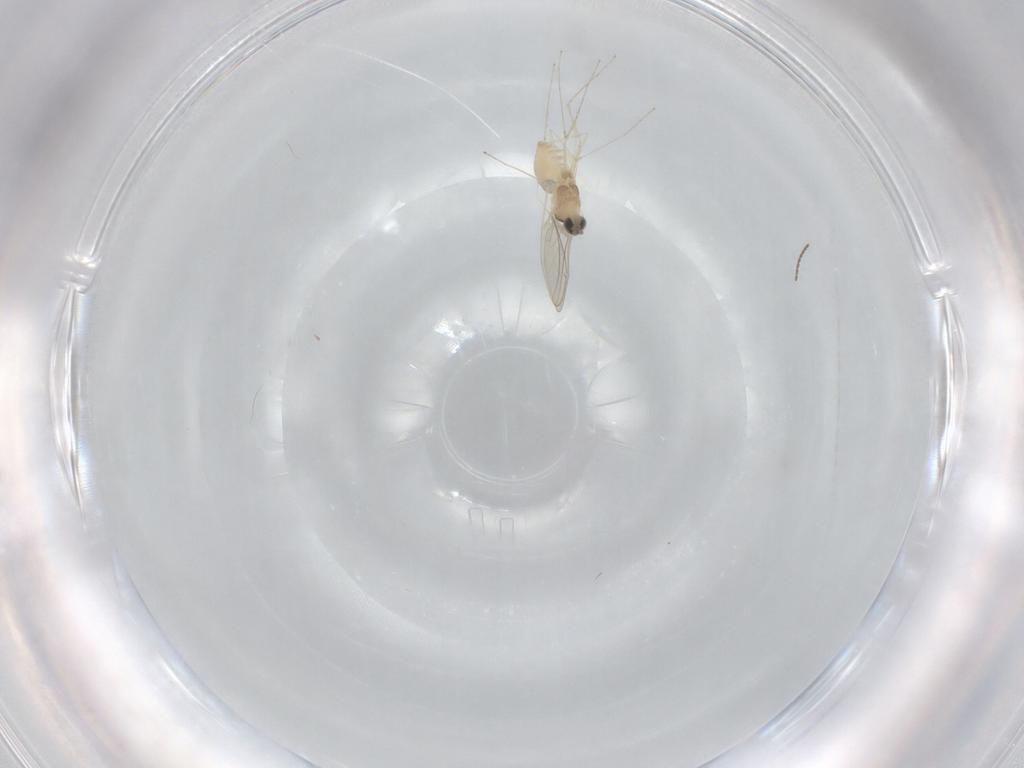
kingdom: Animalia
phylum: Arthropoda
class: Insecta
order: Diptera
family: Cecidomyiidae
